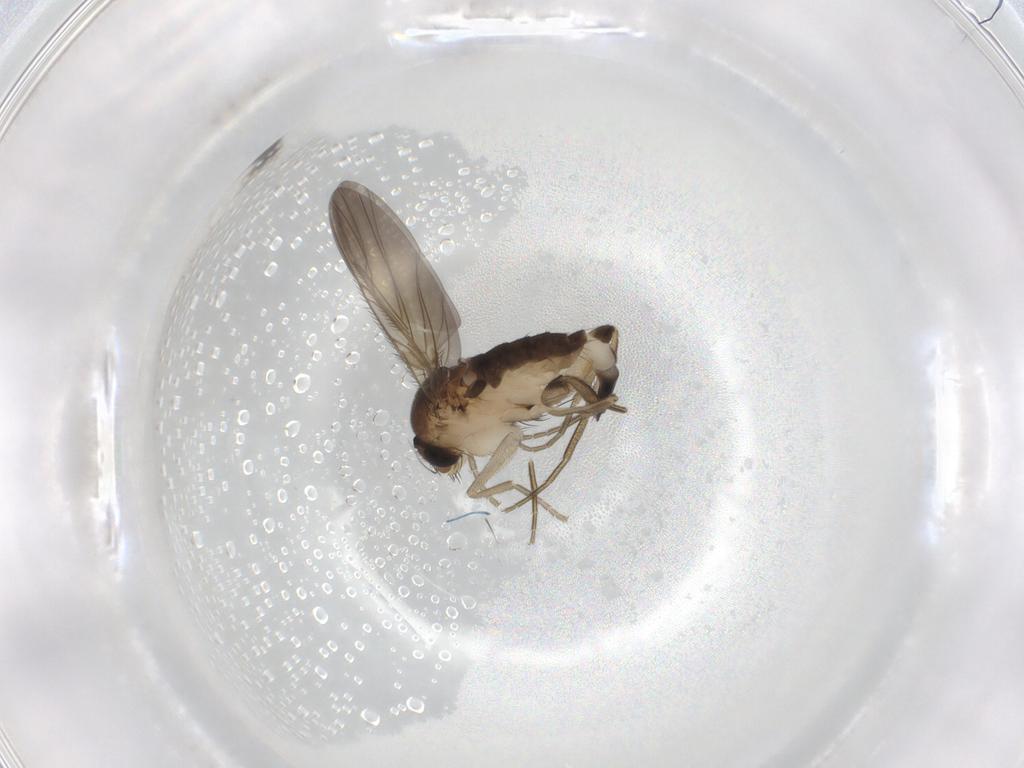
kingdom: Animalia
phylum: Arthropoda
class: Insecta
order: Diptera
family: Phoridae
